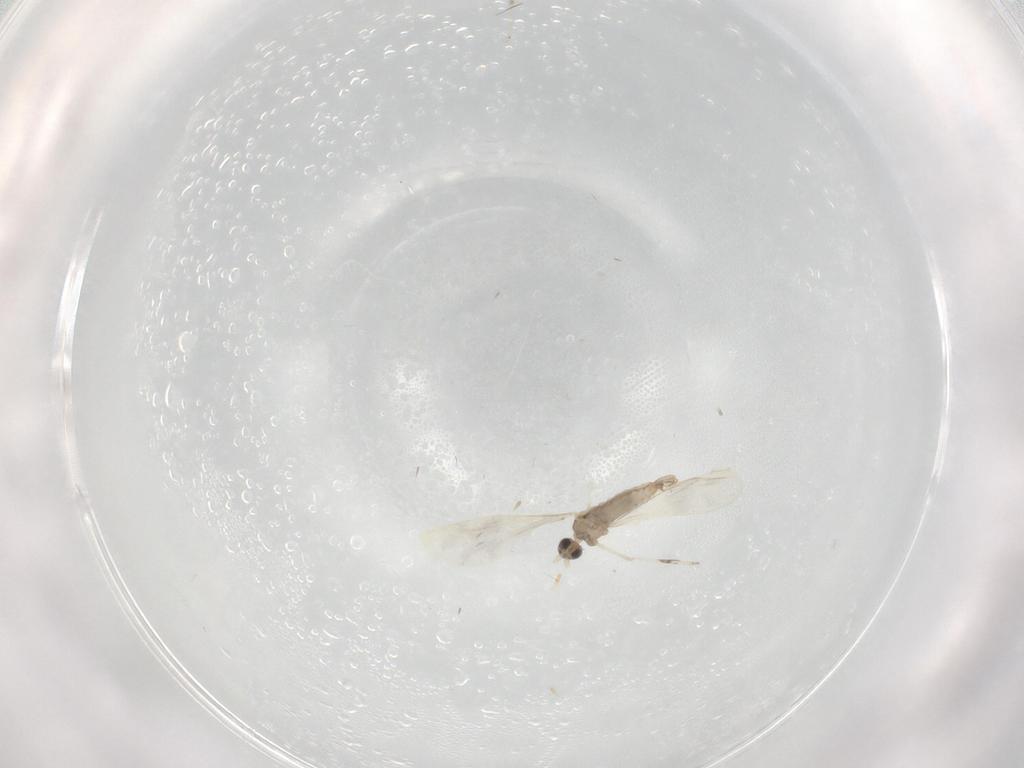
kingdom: Animalia
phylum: Arthropoda
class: Insecta
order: Diptera
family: Cecidomyiidae
